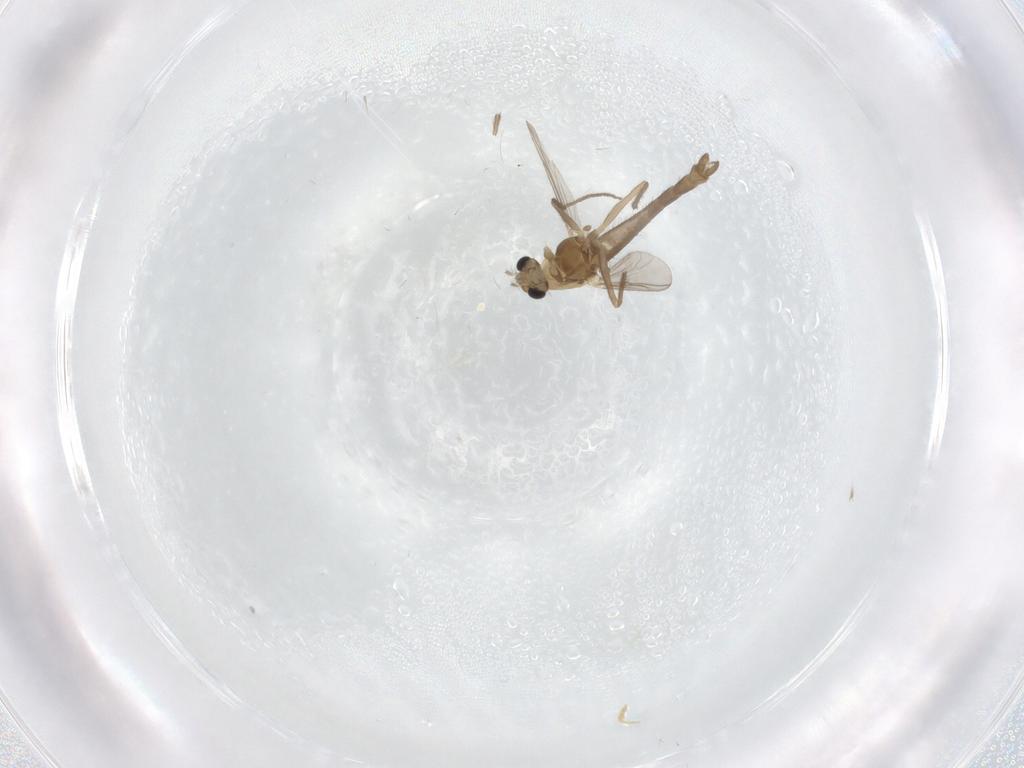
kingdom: Animalia
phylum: Arthropoda
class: Insecta
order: Diptera
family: Chironomidae
